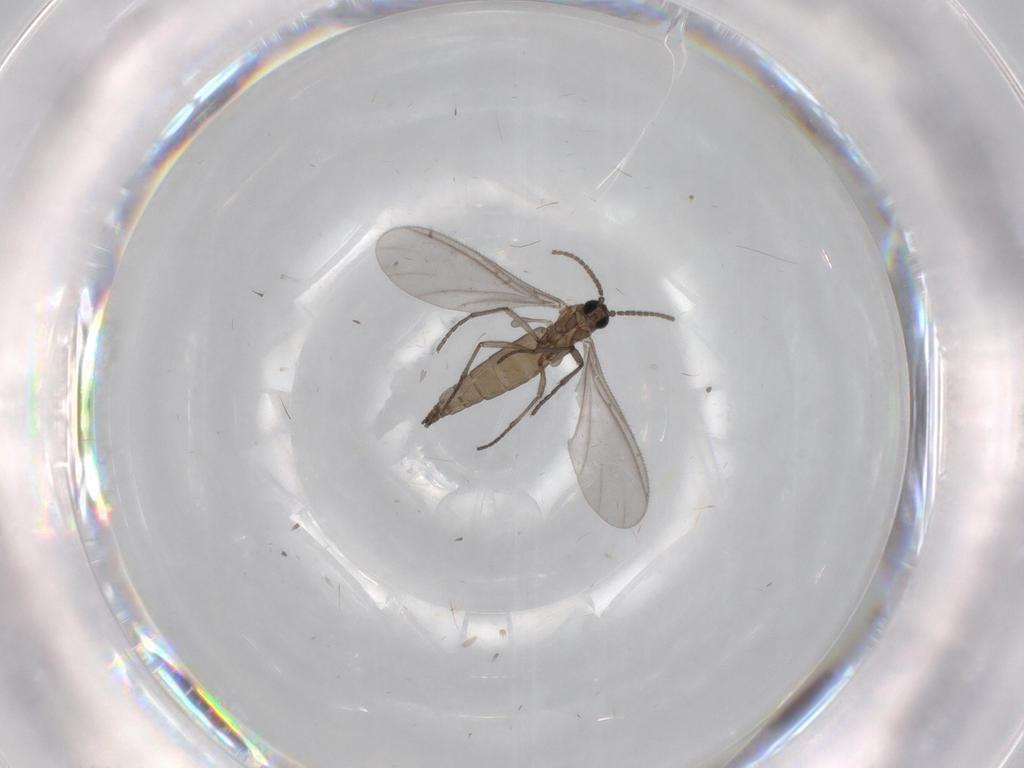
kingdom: Animalia
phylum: Arthropoda
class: Insecta
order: Diptera
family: Sciaridae
